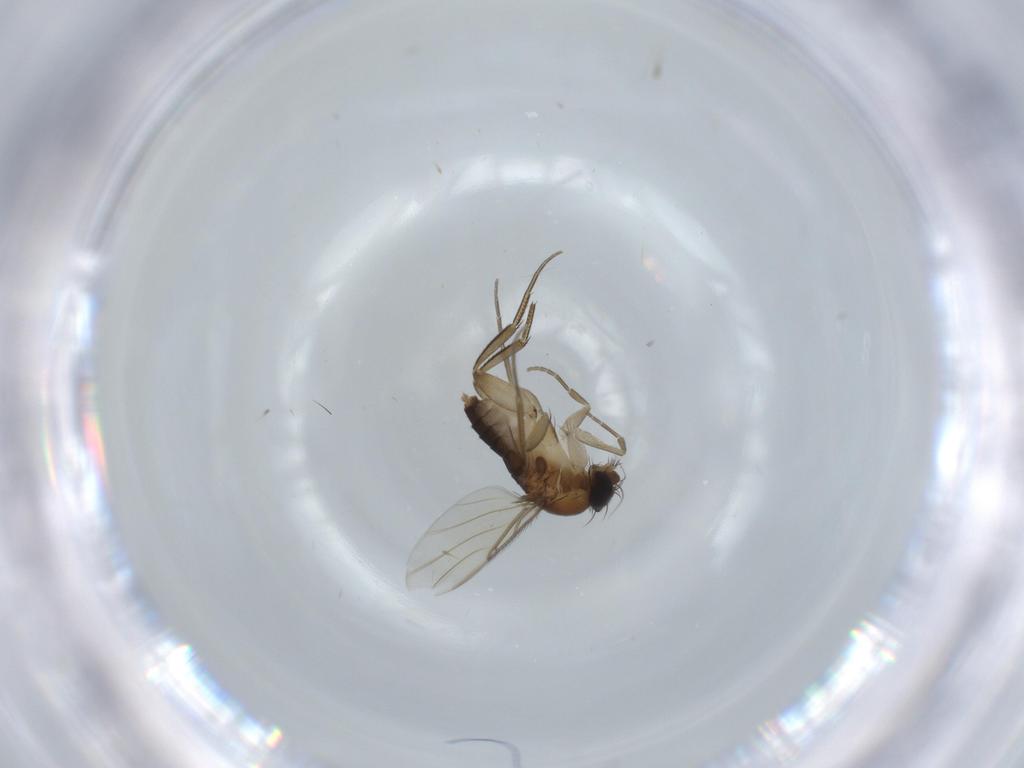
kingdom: Animalia
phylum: Arthropoda
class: Insecta
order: Diptera
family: Phoridae
